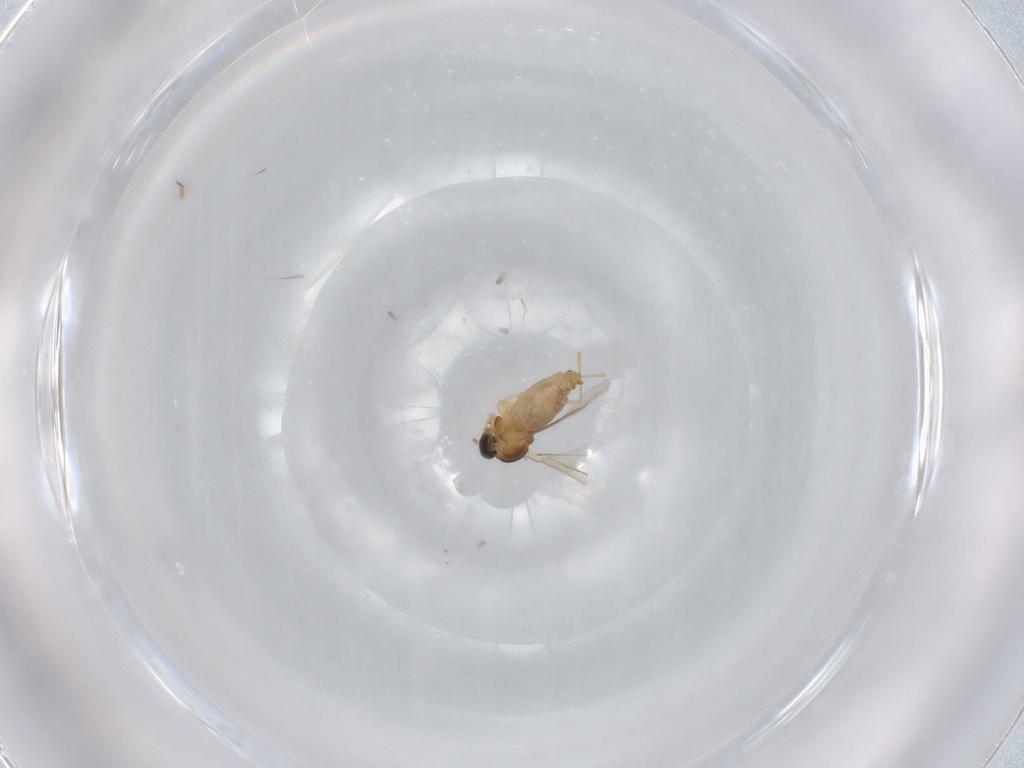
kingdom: Animalia
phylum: Arthropoda
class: Insecta
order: Diptera
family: Cecidomyiidae
